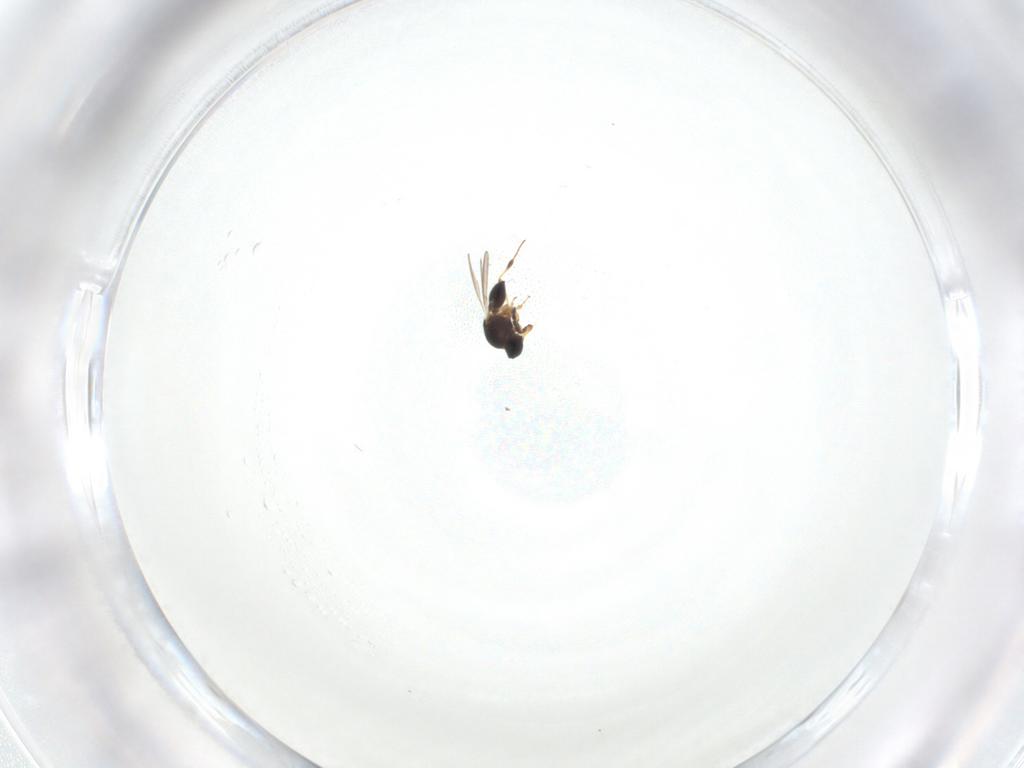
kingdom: Animalia
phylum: Arthropoda
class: Insecta
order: Hymenoptera
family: Platygastridae
